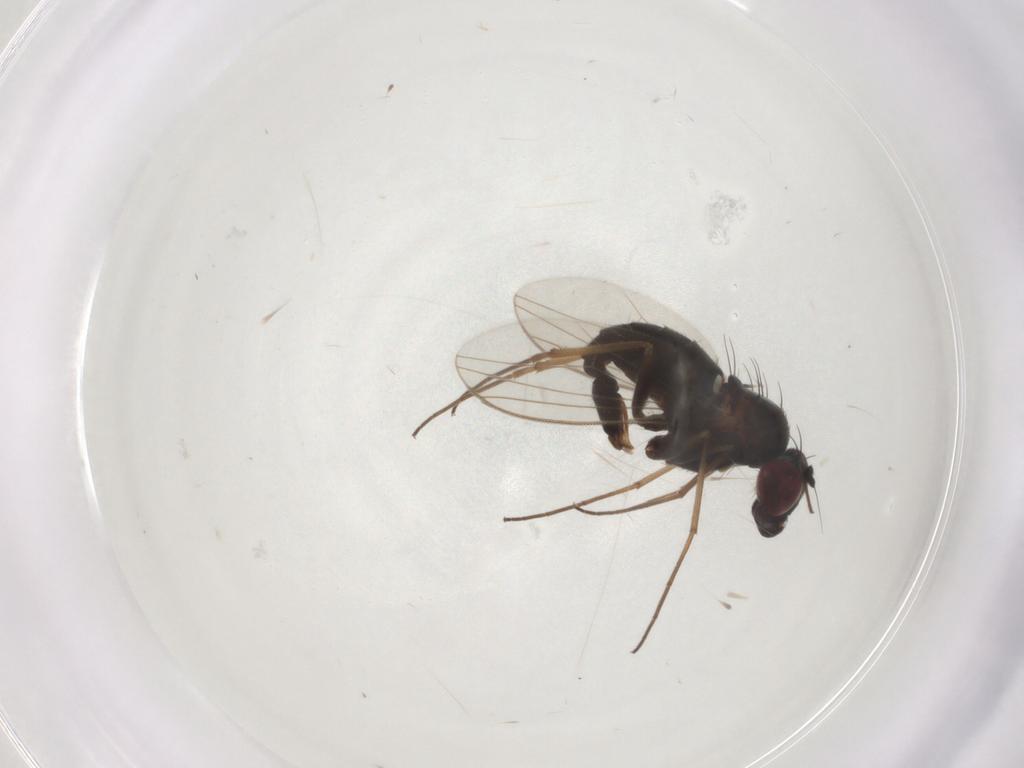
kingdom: Animalia
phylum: Arthropoda
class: Insecta
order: Diptera
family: Dolichopodidae
